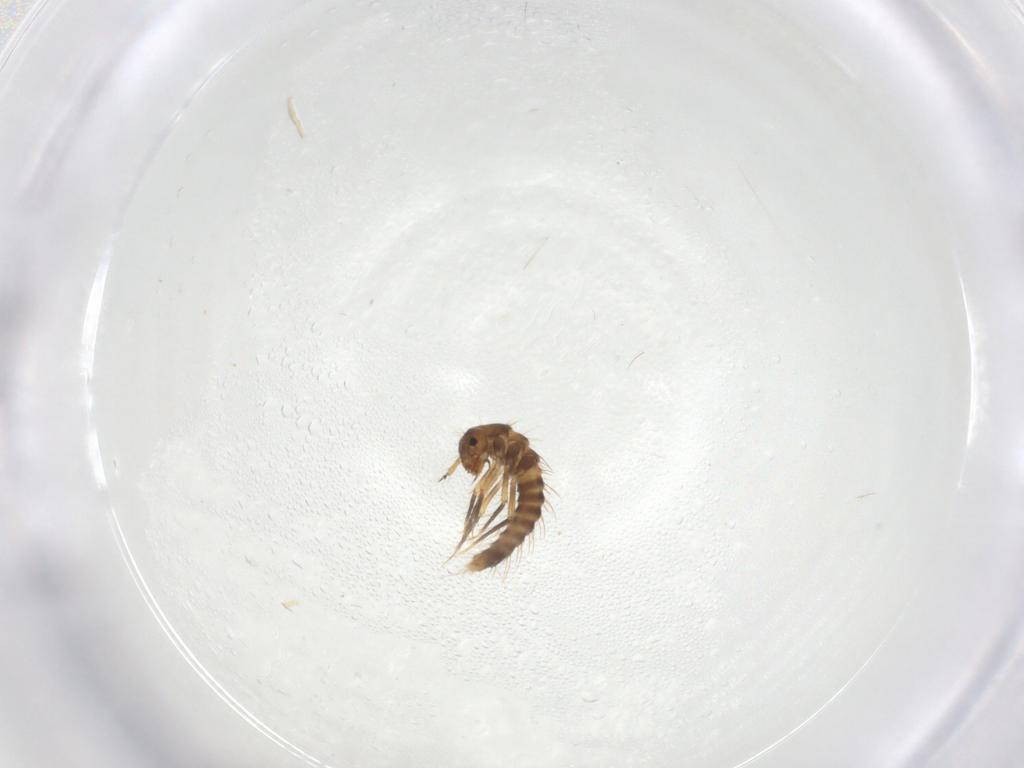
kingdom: Animalia
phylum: Arthropoda
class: Insecta
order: Coleoptera
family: Staphylinidae
